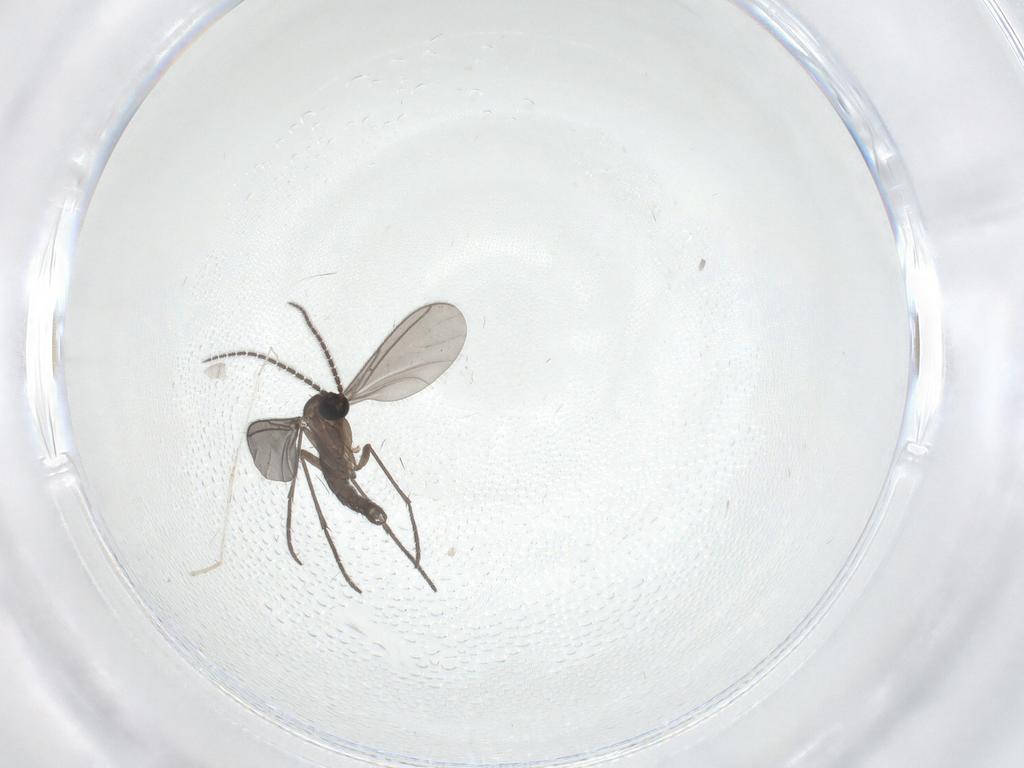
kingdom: Animalia
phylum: Arthropoda
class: Insecta
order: Diptera
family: Sciaridae
